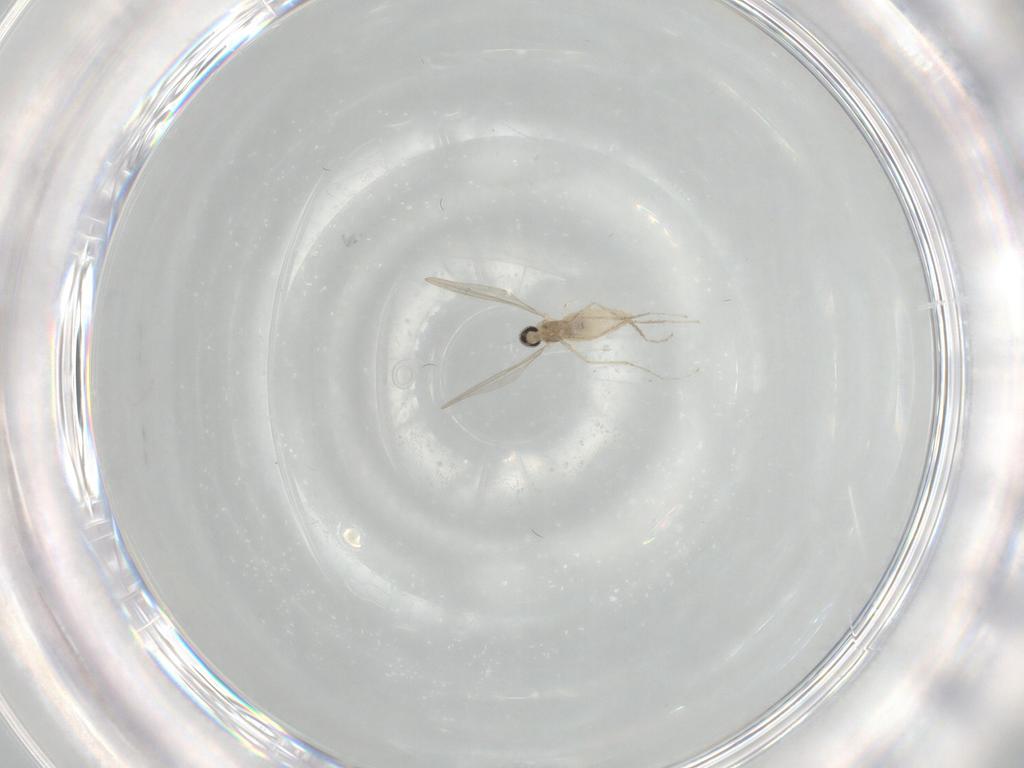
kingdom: Animalia
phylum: Arthropoda
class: Insecta
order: Diptera
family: Cecidomyiidae
